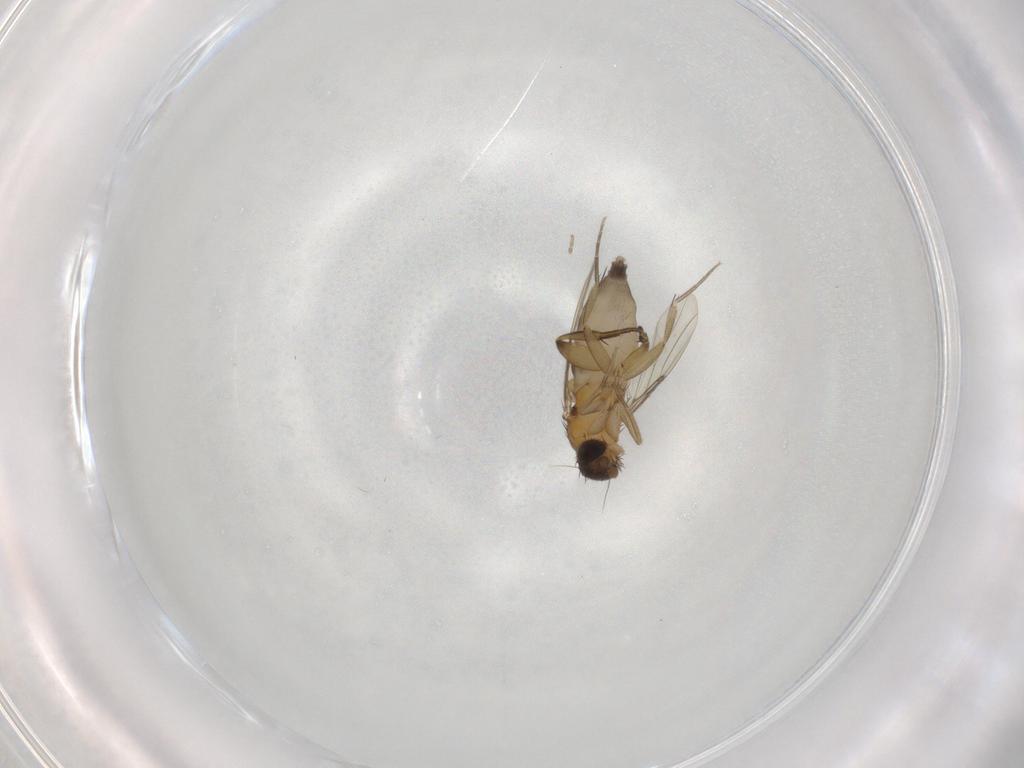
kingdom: Animalia
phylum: Arthropoda
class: Insecta
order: Diptera
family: Phoridae
